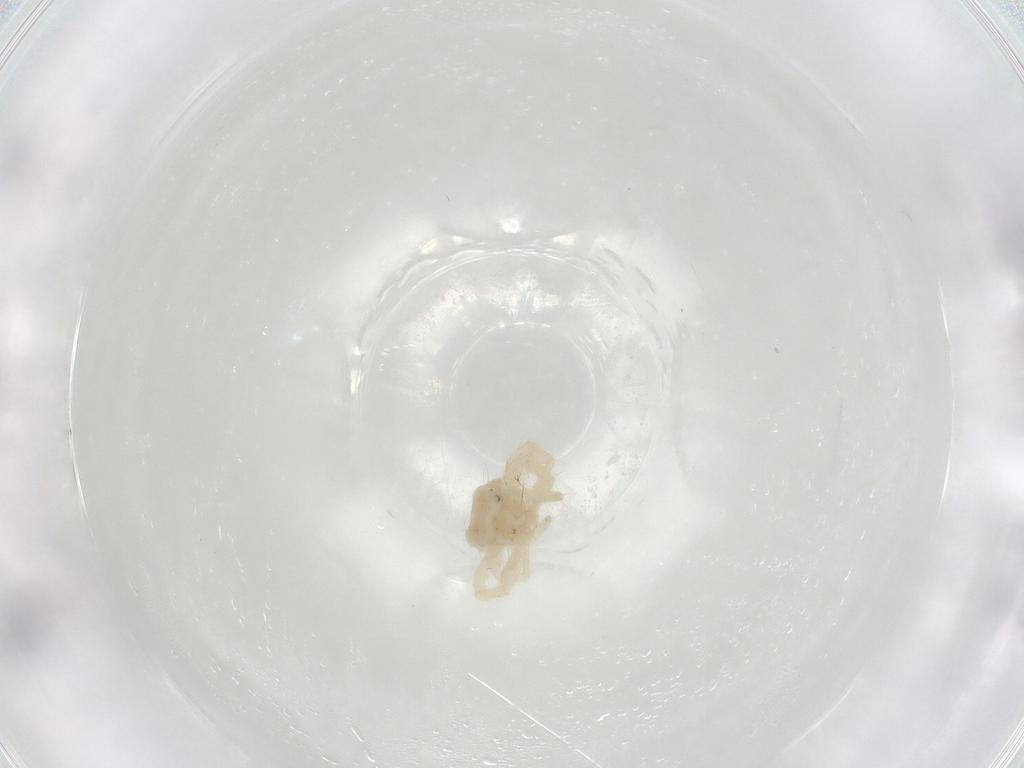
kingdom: Animalia
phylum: Arthropoda
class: Arachnida
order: Trombidiformes
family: Anystidae
